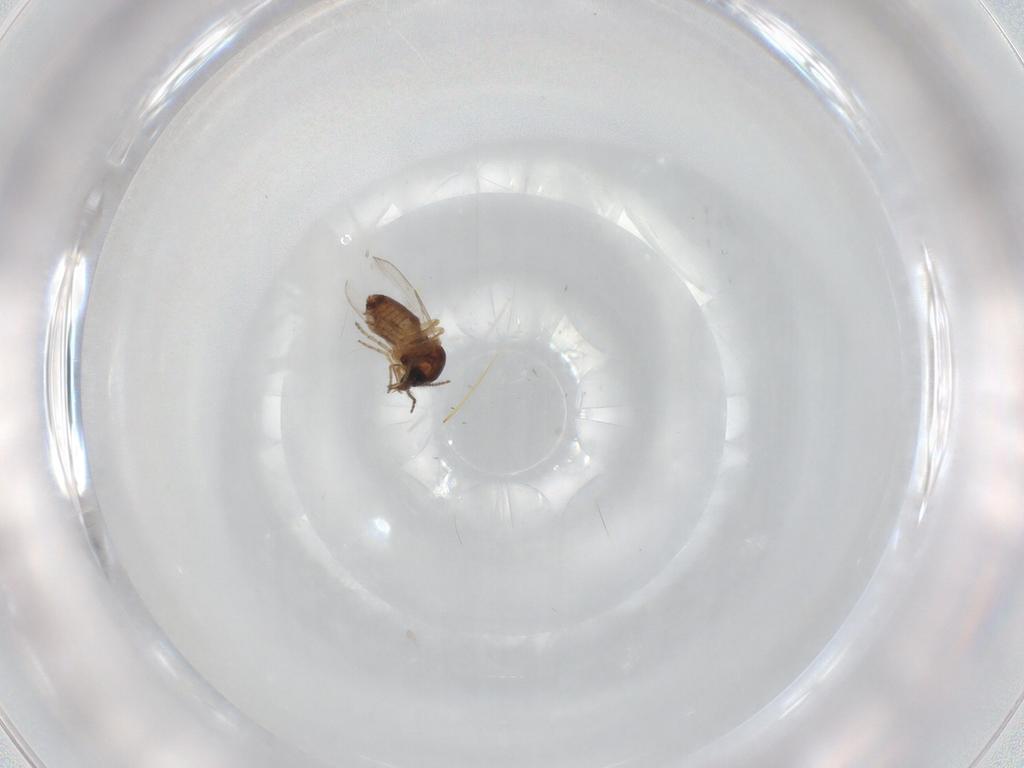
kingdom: Animalia
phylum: Arthropoda
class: Insecta
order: Diptera
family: Ceratopogonidae
